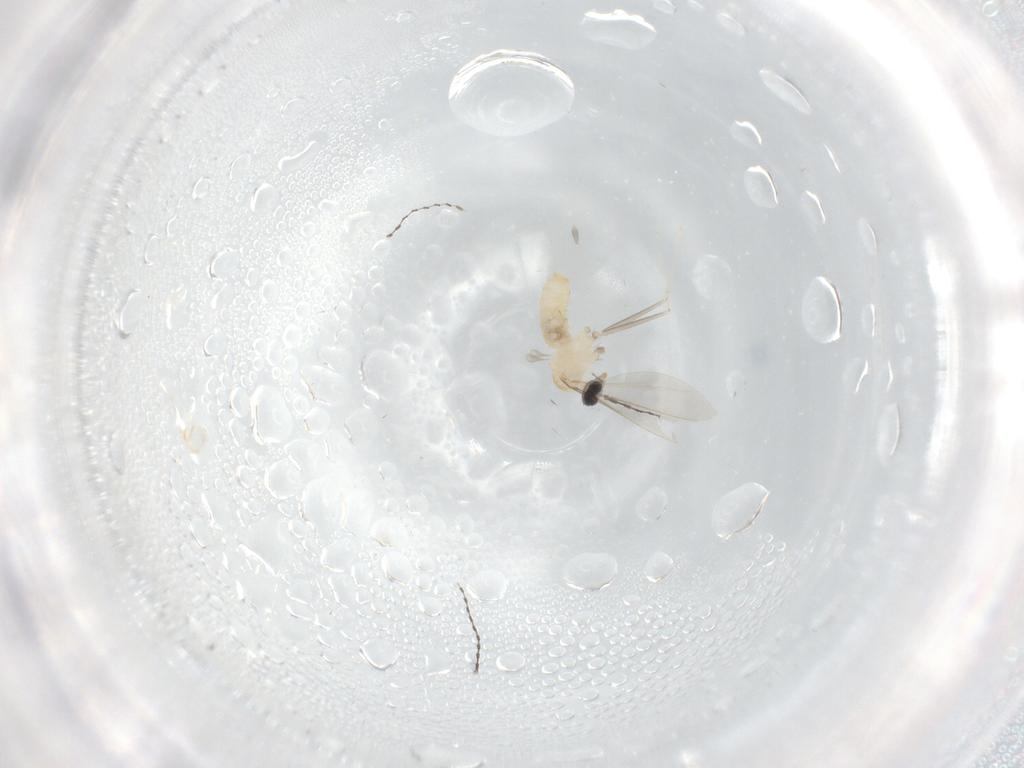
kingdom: Animalia
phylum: Arthropoda
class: Insecta
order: Diptera
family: Cecidomyiidae
